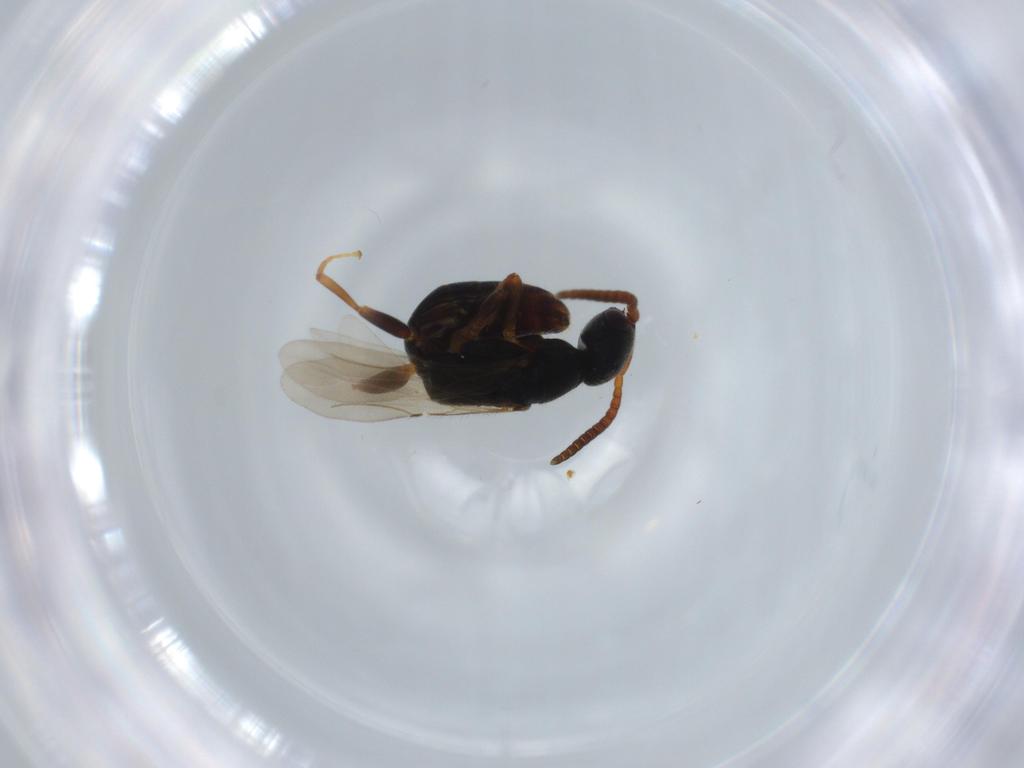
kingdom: Animalia
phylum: Arthropoda
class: Insecta
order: Hymenoptera
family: Bethylidae
